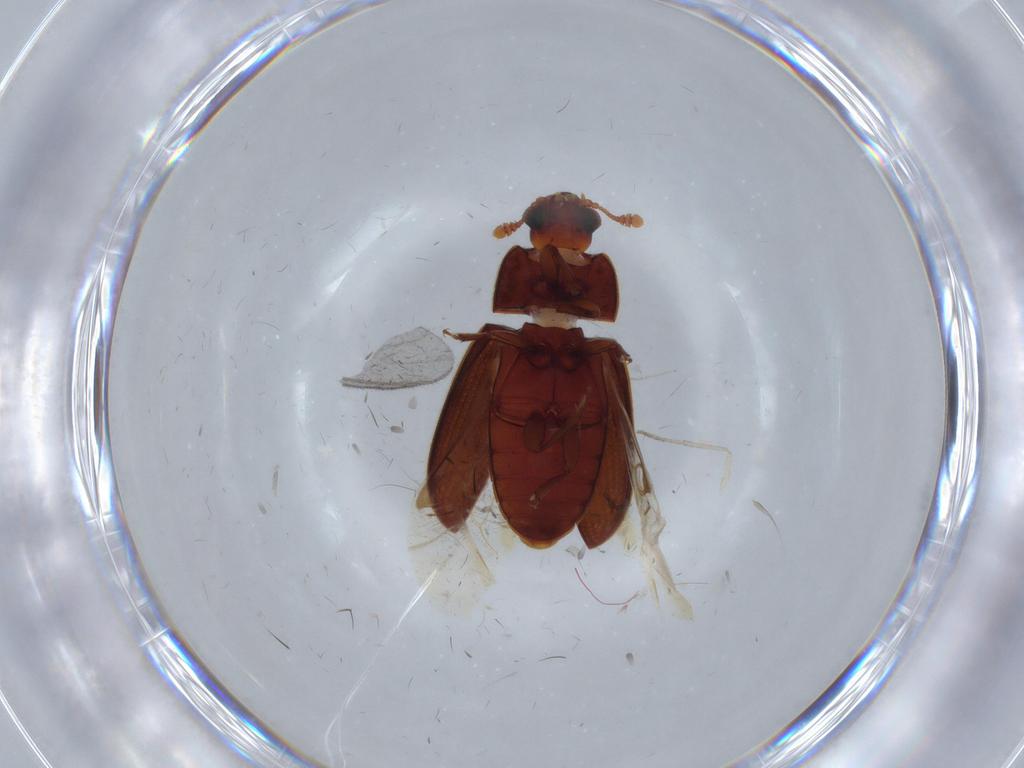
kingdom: Animalia
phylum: Arthropoda
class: Insecta
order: Coleoptera
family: Biphyllidae
